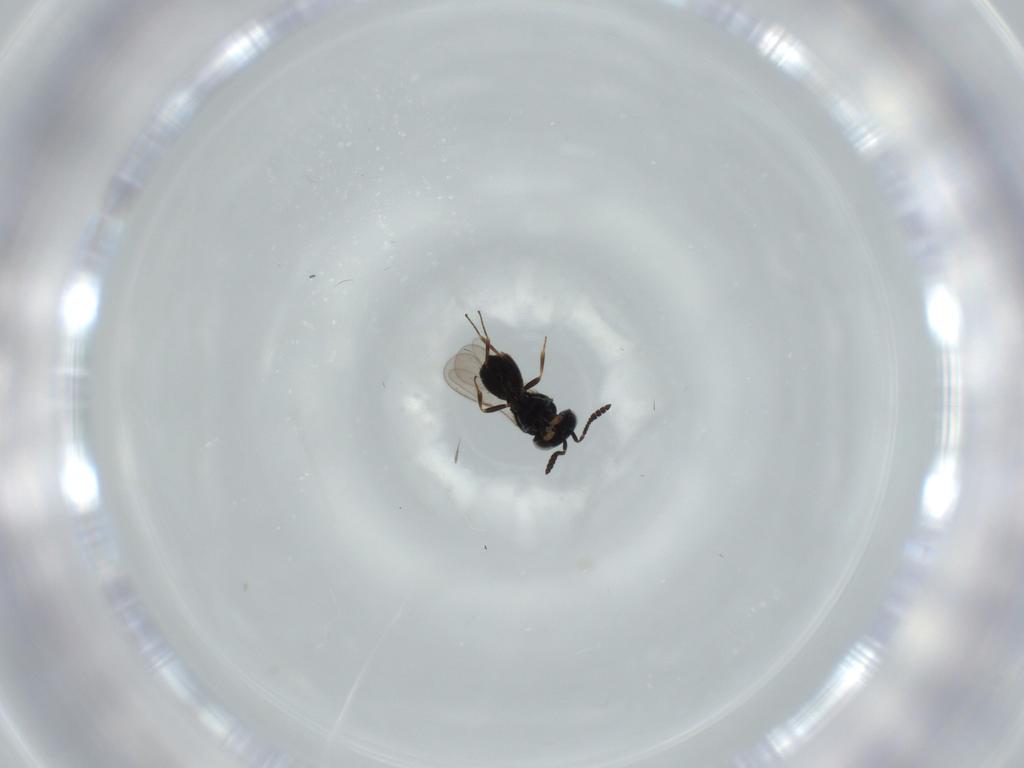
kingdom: Animalia
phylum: Arthropoda
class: Insecta
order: Hymenoptera
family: Scelionidae
